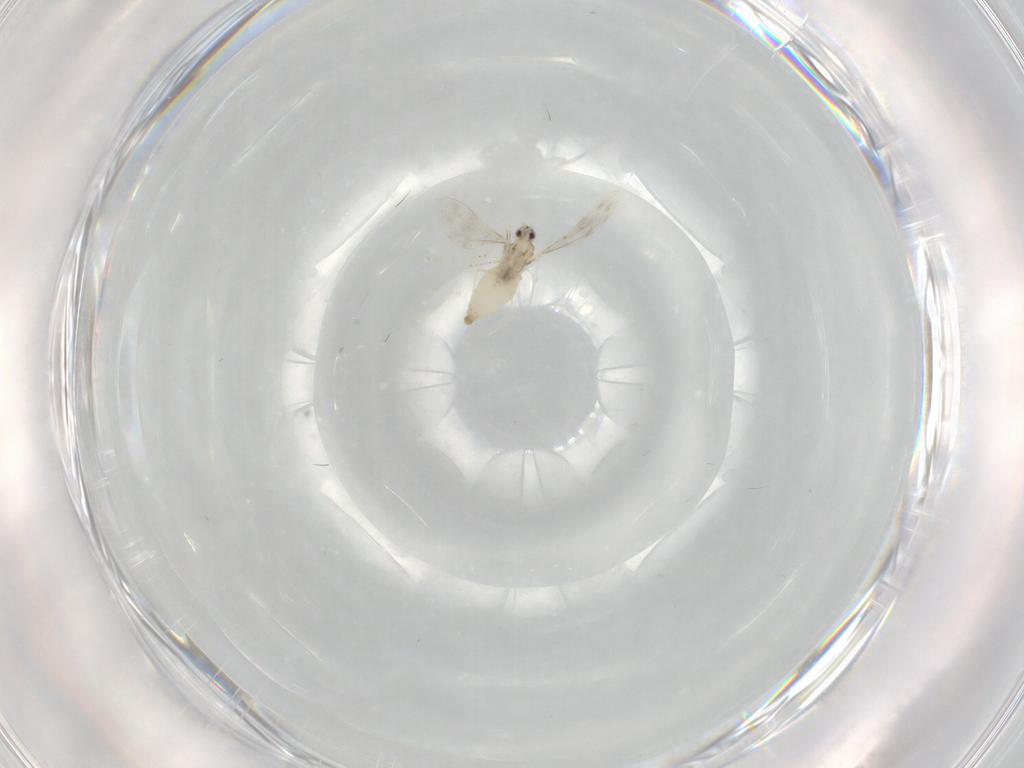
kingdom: Animalia
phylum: Arthropoda
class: Insecta
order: Diptera
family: Cecidomyiidae
